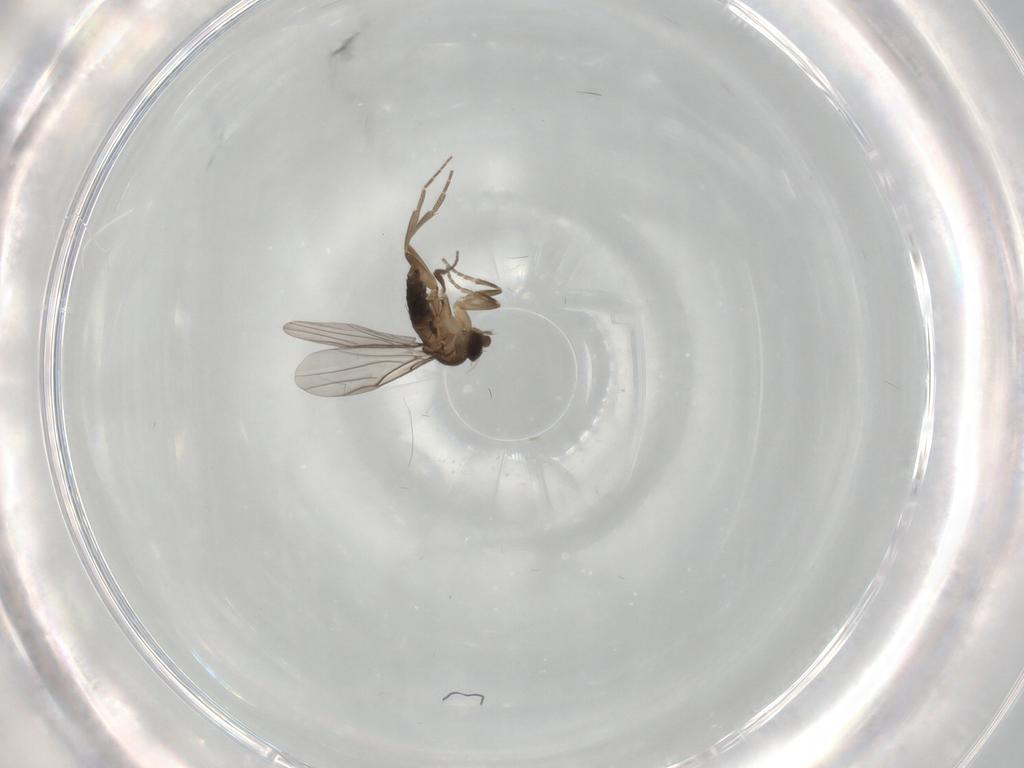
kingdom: Animalia
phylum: Arthropoda
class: Insecta
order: Diptera
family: Phoridae
